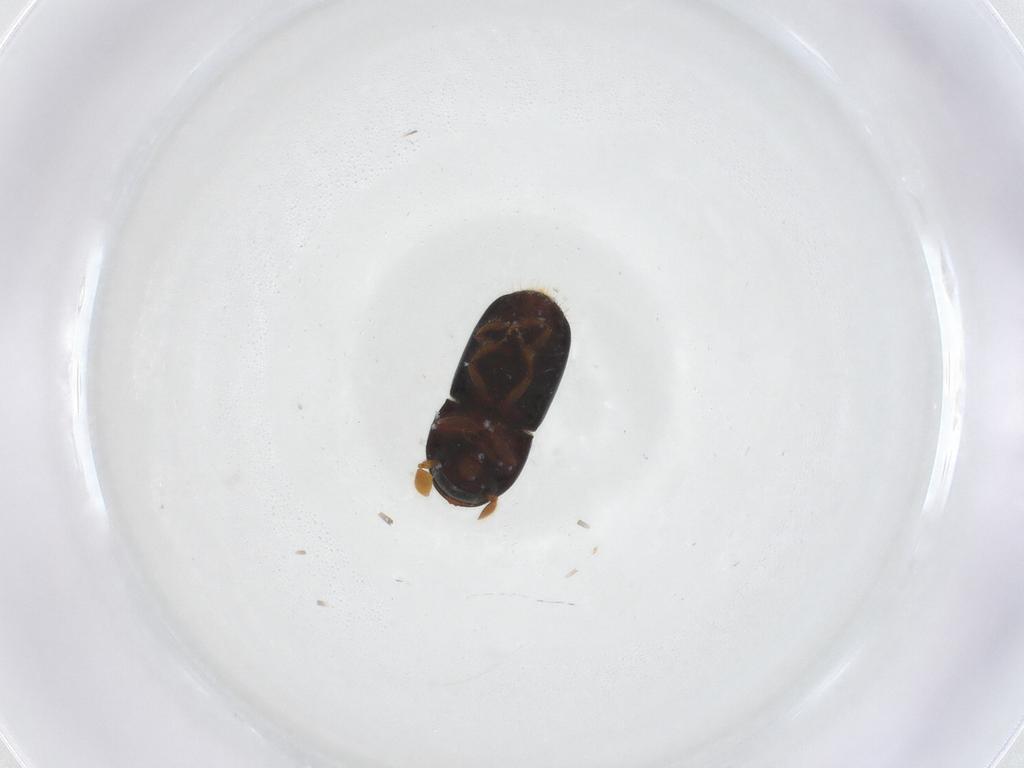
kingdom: Animalia
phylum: Arthropoda
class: Insecta
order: Coleoptera
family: Mordellidae
